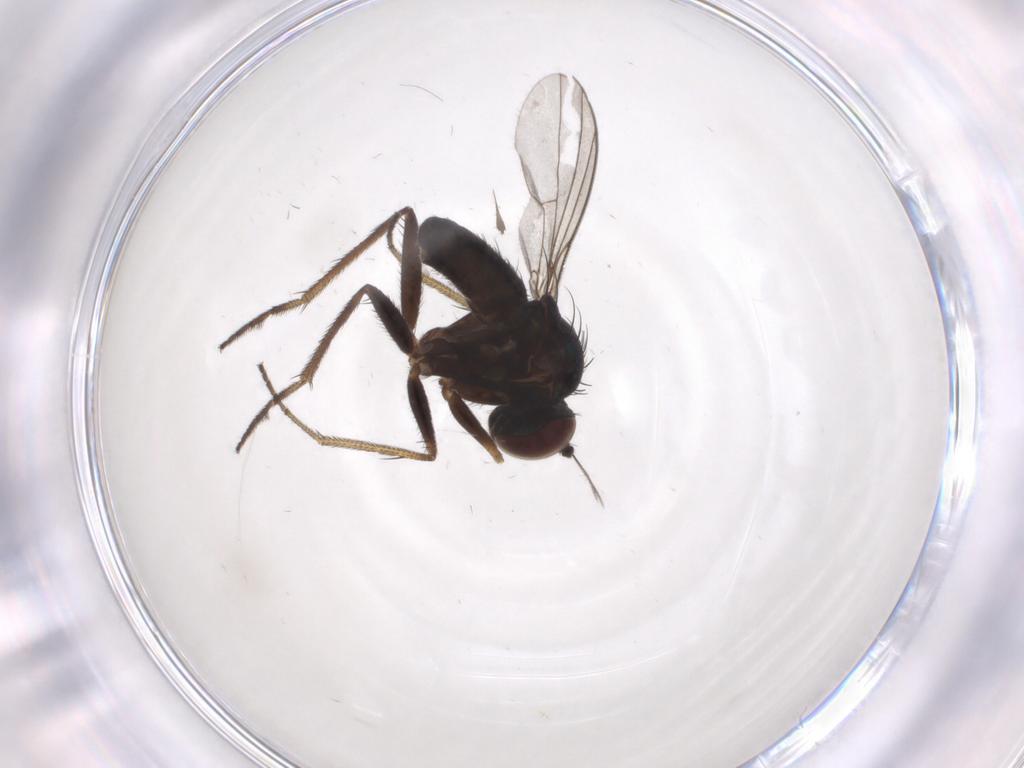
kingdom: Animalia
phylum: Arthropoda
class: Insecta
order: Diptera
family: Dolichopodidae
